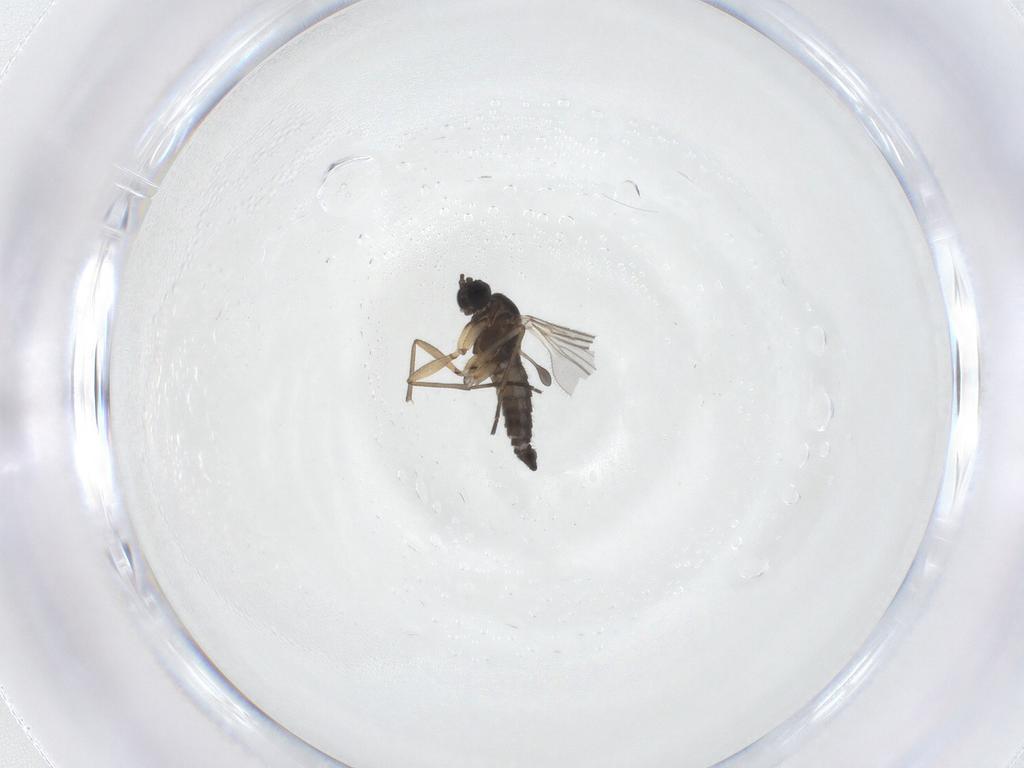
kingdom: Animalia
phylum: Arthropoda
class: Insecta
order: Diptera
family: Sciaridae
